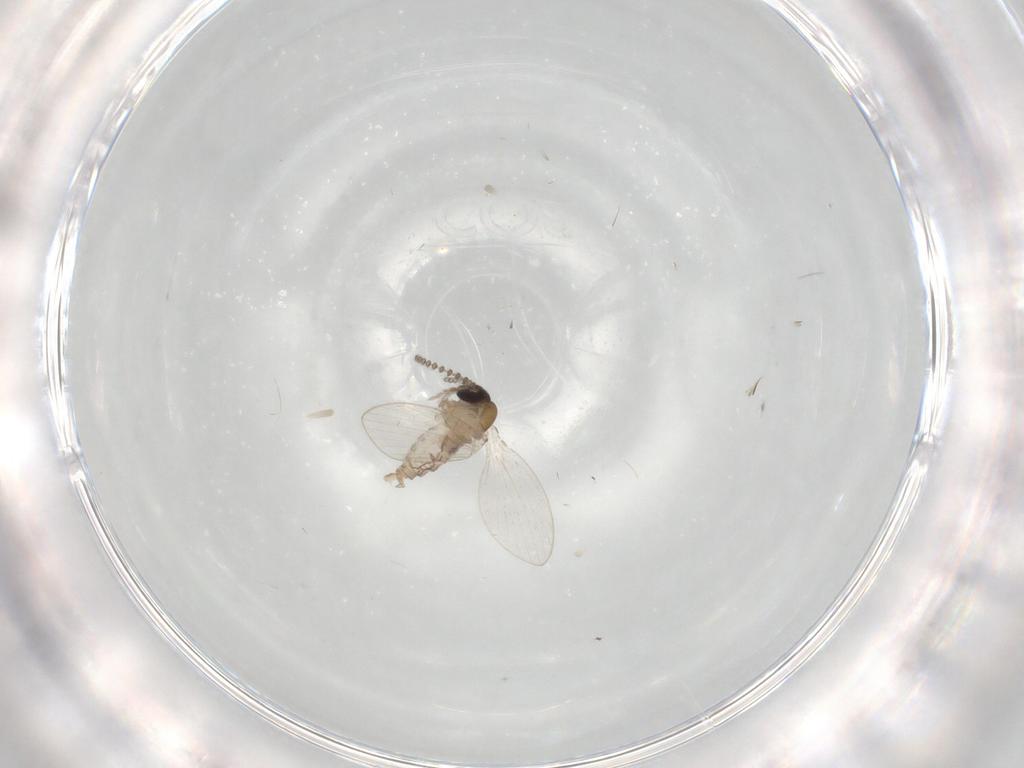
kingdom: Animalia
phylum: Arthropoda
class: Insecta
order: Diptera
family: Psychodidae
